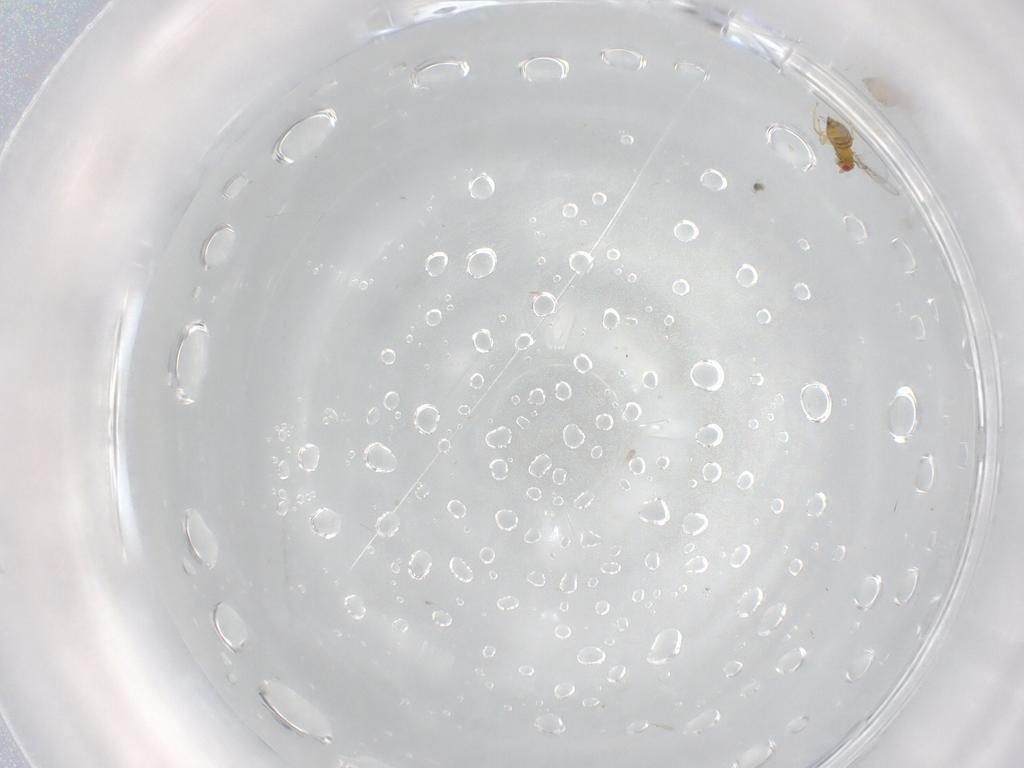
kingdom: Animalia
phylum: Arthropoda
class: Insecta
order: Hymenoptera
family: Trichogrammatidae
